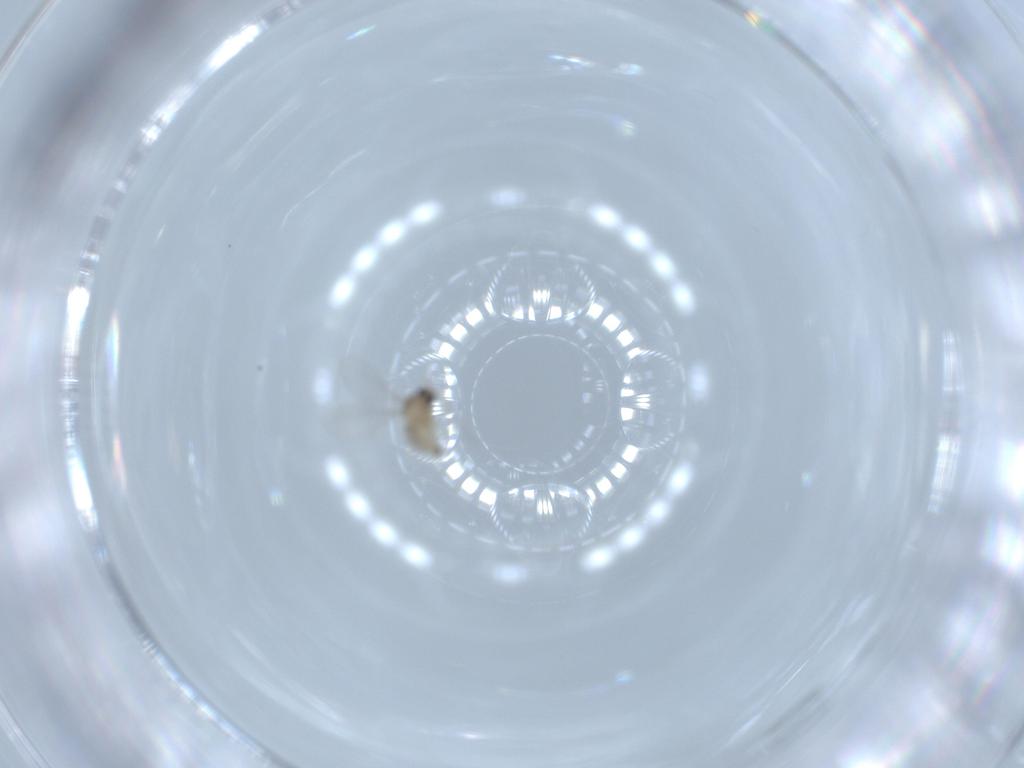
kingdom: Animalia
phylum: Arthropoda
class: Insecta
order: Diptera
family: Cecidomyiidae
